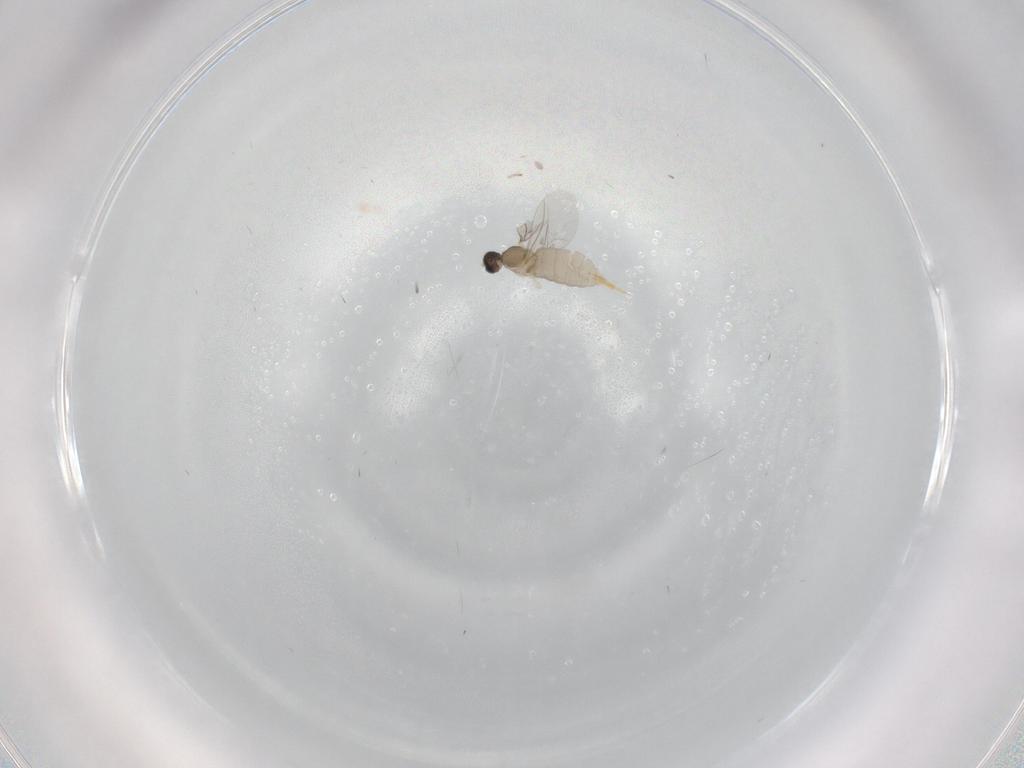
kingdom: Animalia
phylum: Arthropoda
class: Insecta
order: Diptera
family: Cecidomyiidae
